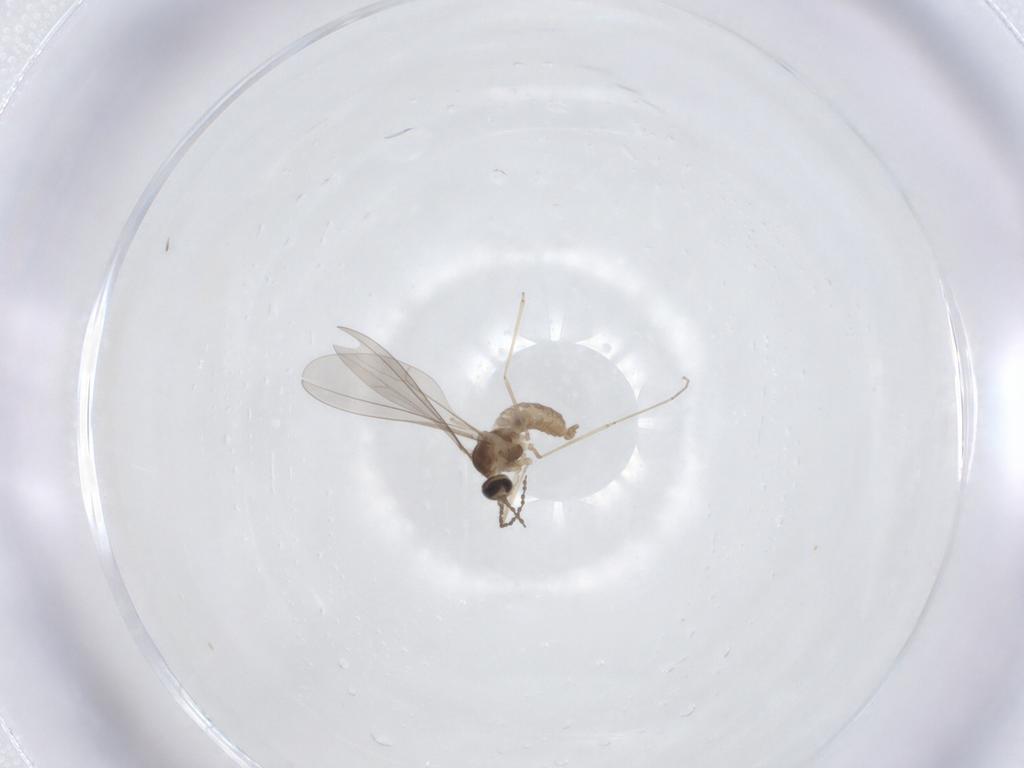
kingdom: Animalia
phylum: Arthropoda
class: Insecta
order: Diptera
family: Cecidomyiidae
